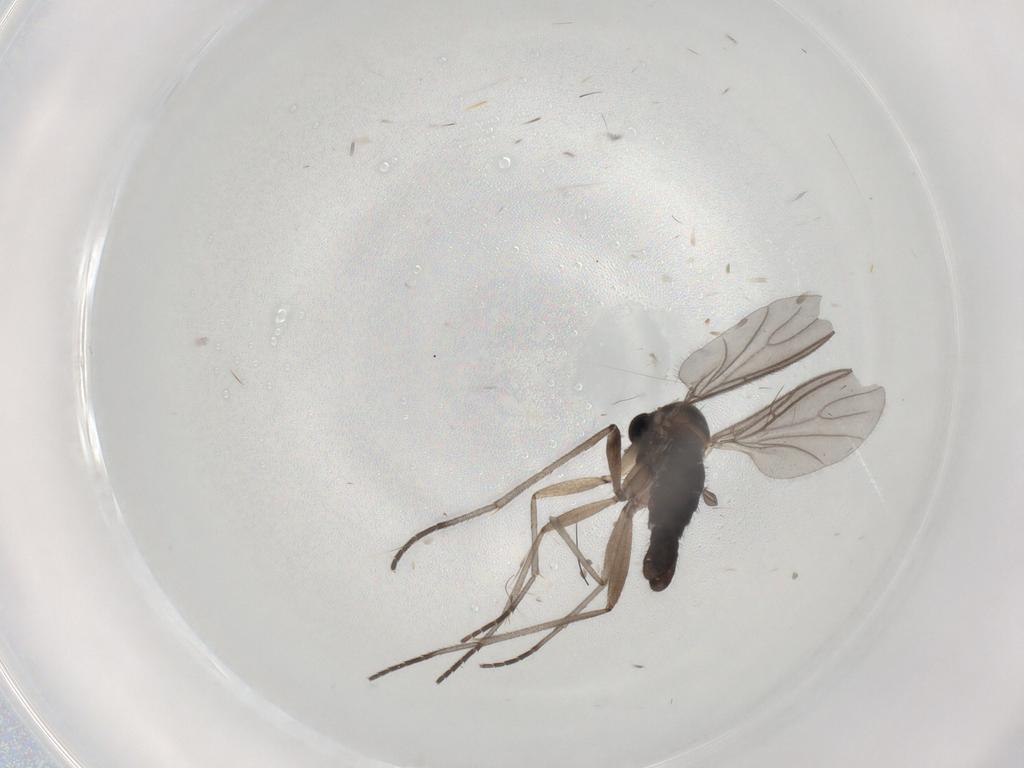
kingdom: Animalia
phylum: Arthropoda
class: Insecta
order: Diptera
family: Sciaridae
